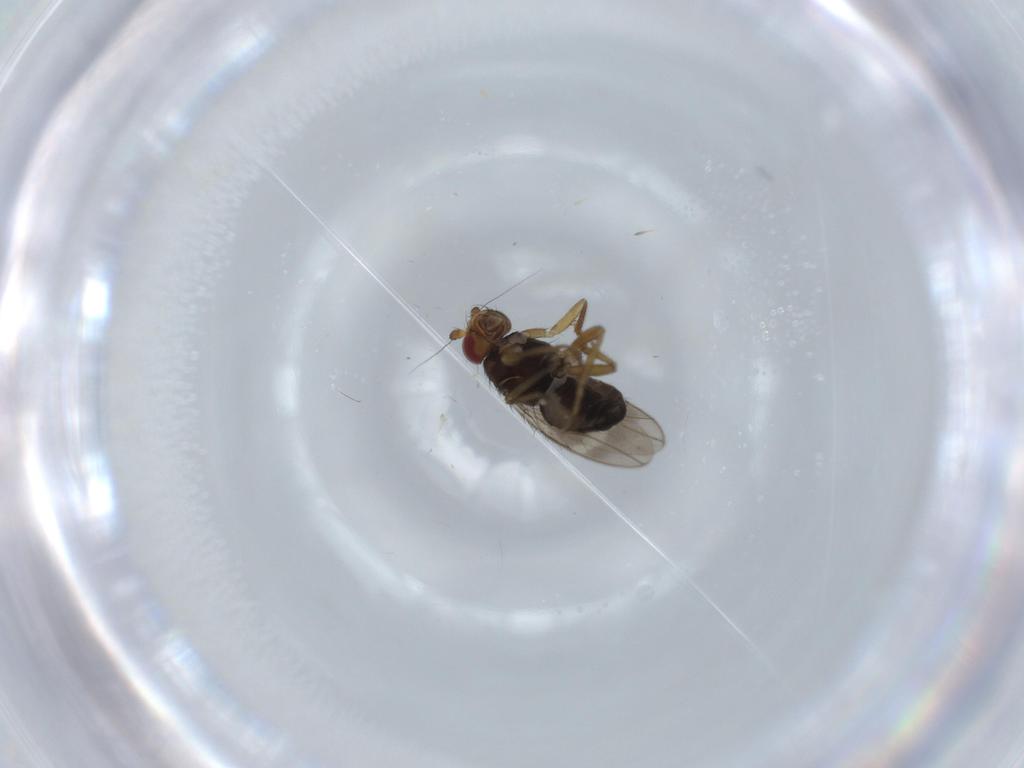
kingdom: Animalia
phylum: Arthropoda
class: Insecta
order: Diptera
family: Sphaeroceridae
